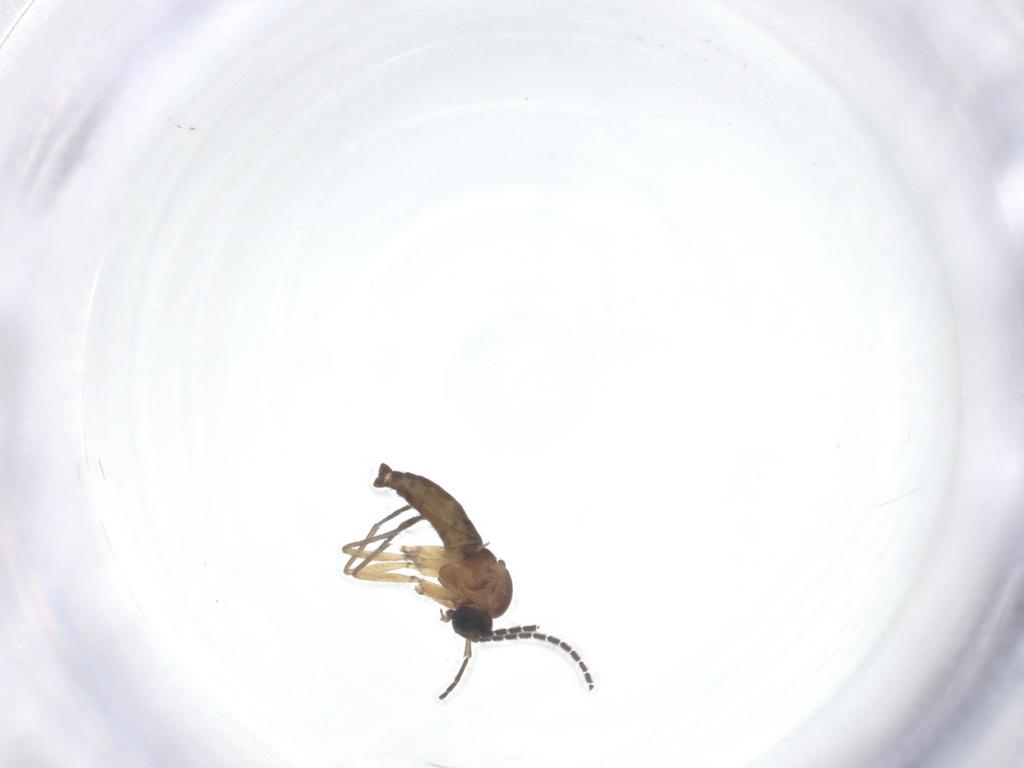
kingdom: Animalia
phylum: Arthropoda
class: Insecta
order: Diptera
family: Sciaridae
